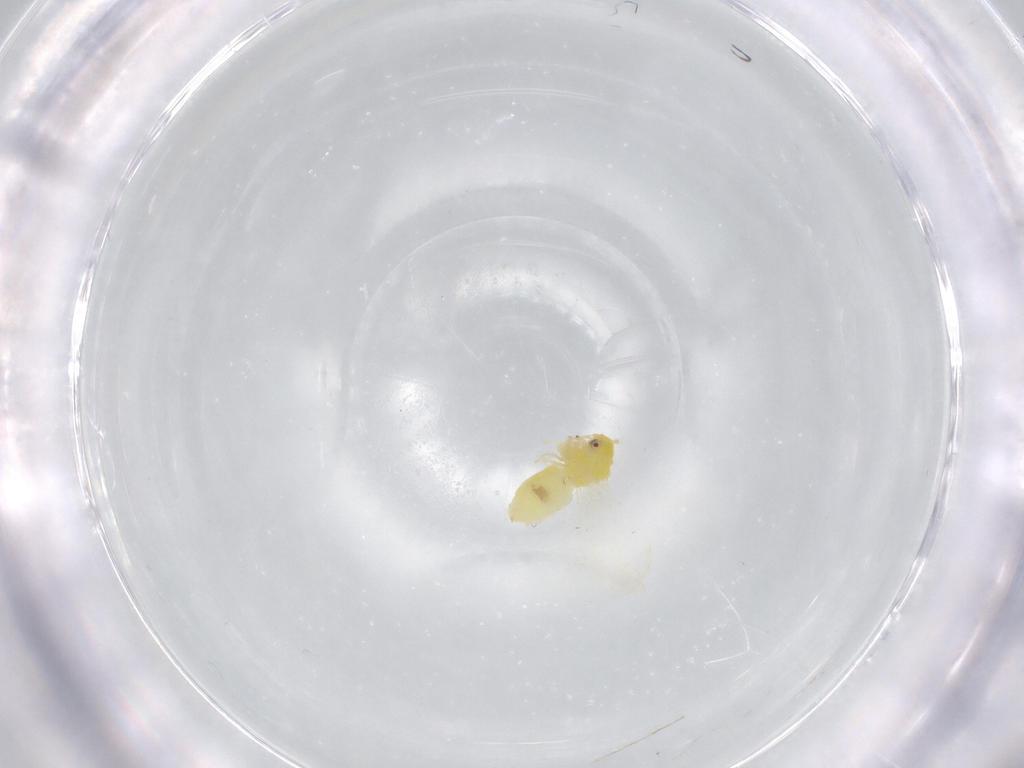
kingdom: Animalia
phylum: Arthropoda
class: Insecta
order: Hemiptera
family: Aleyrodidae
